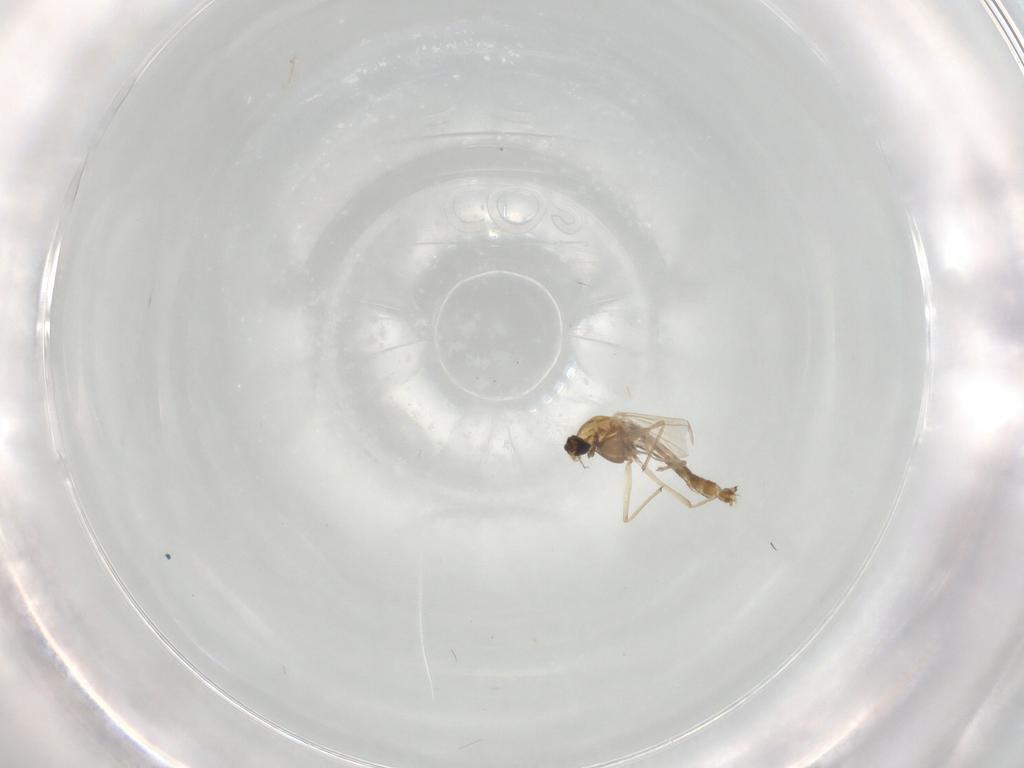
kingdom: Animalia
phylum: Arthropoda
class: Insecta
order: Diptera
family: Chironomidae
